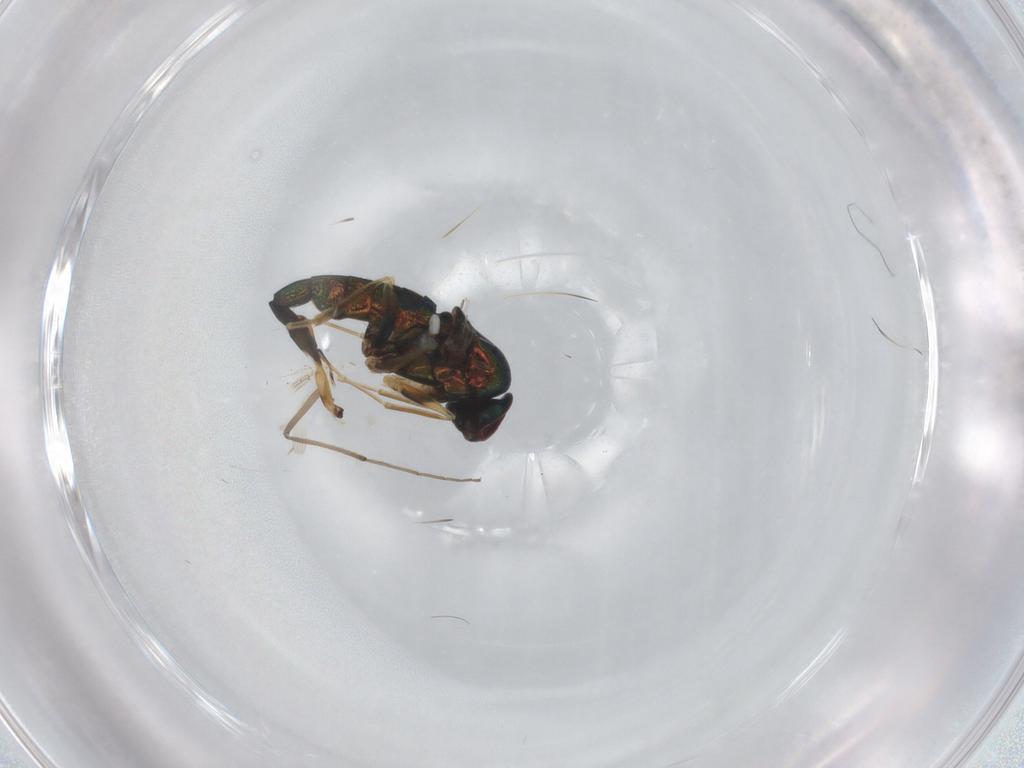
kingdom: Animalia
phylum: Arthropoda
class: Insecta
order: Diptera
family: Dolichopodidae
